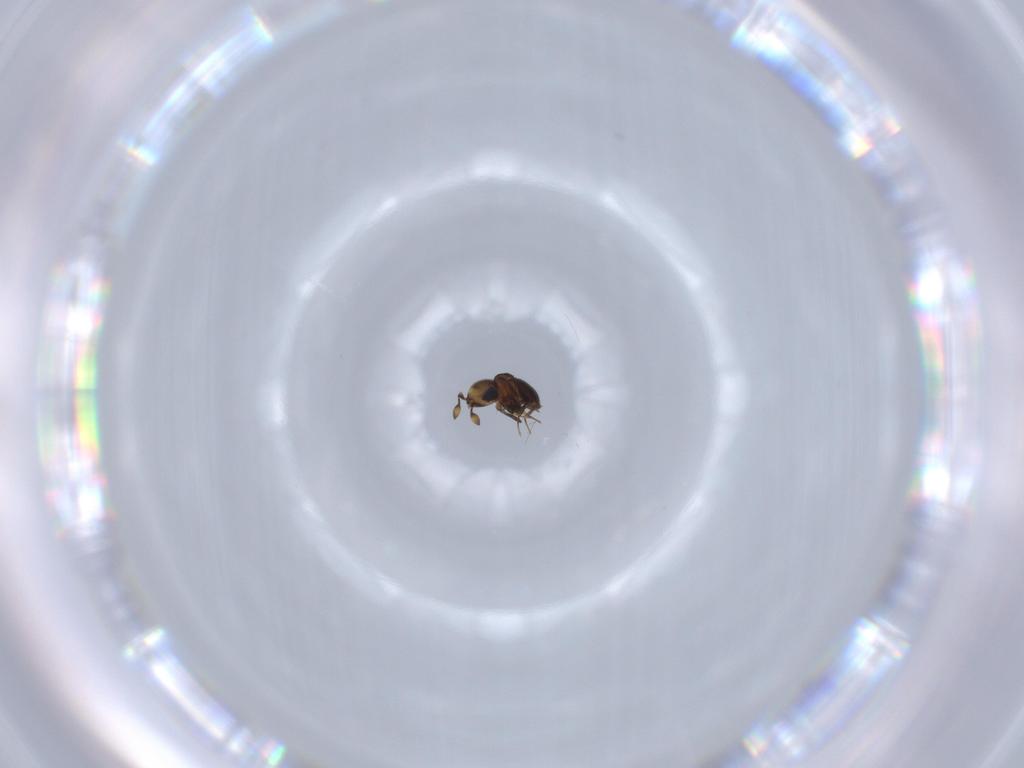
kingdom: Animalia
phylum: Arthropoda
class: Insecta
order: Hymenoptera
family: Scelionidae
